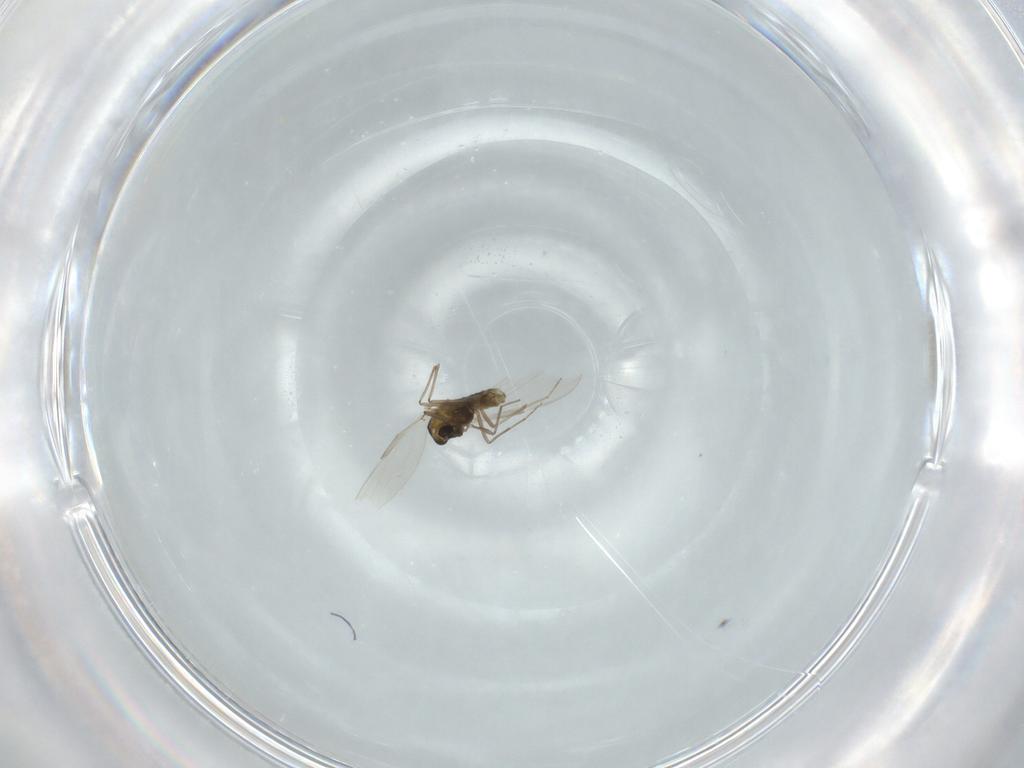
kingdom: Animalia
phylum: Arthropoda
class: Insecta
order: Diptera
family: Chironomidae
